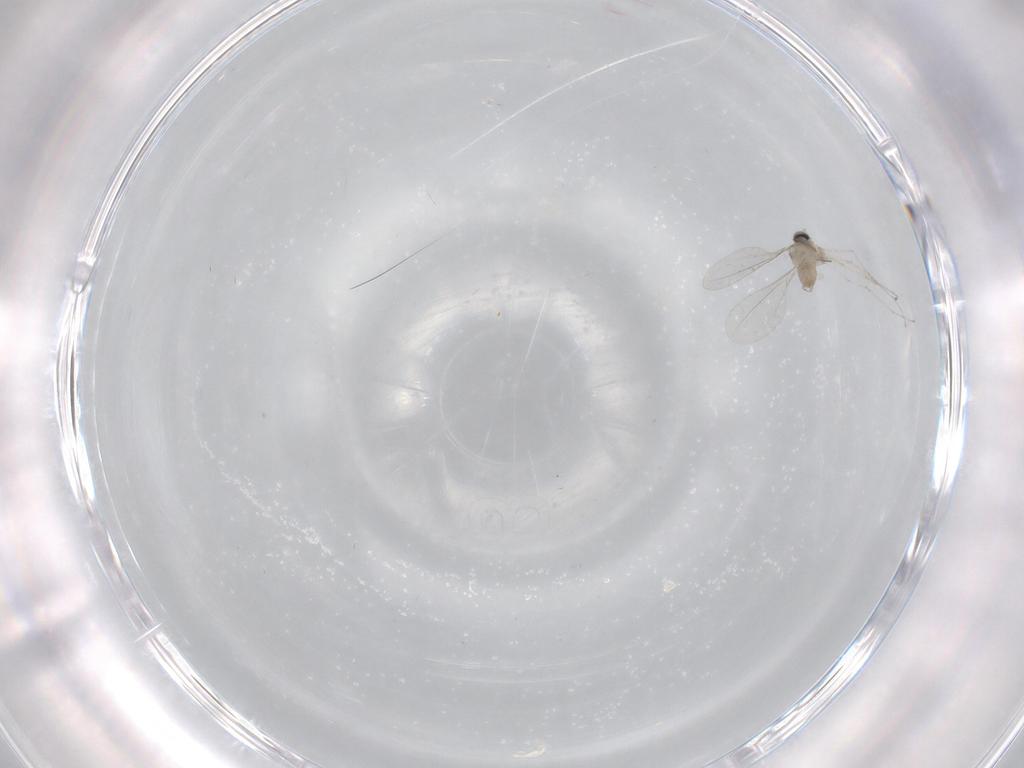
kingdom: Animalia
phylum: Arthropoda
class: Insecta
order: Diptera
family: Cecidomyiidae
